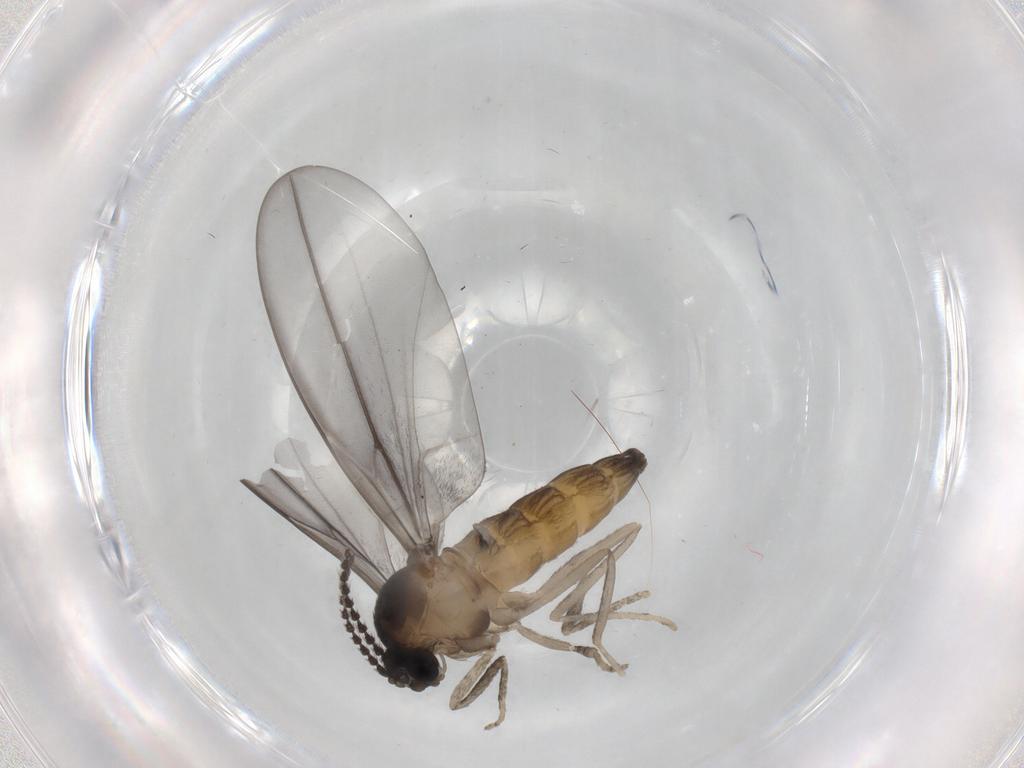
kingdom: Animalia
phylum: Arthropoda
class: Insecta
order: Diptera
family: Cecidomyiidae
